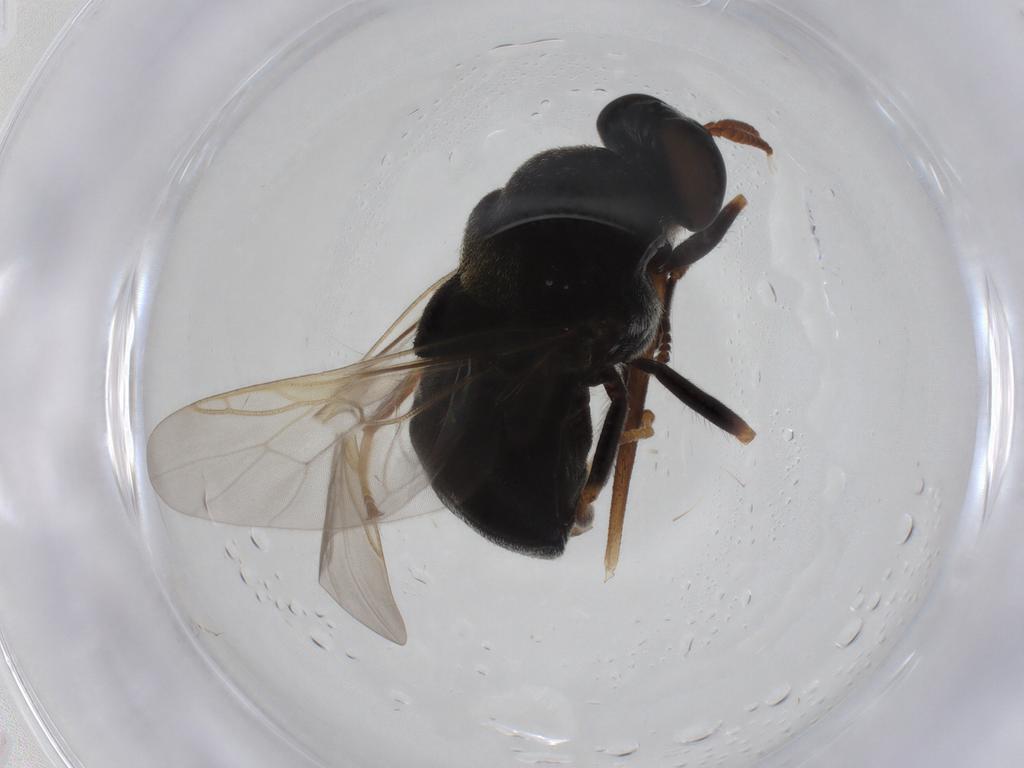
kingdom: Animalia
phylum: Arthropoda
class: Insecta
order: Diptera
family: Stratiomyidae
